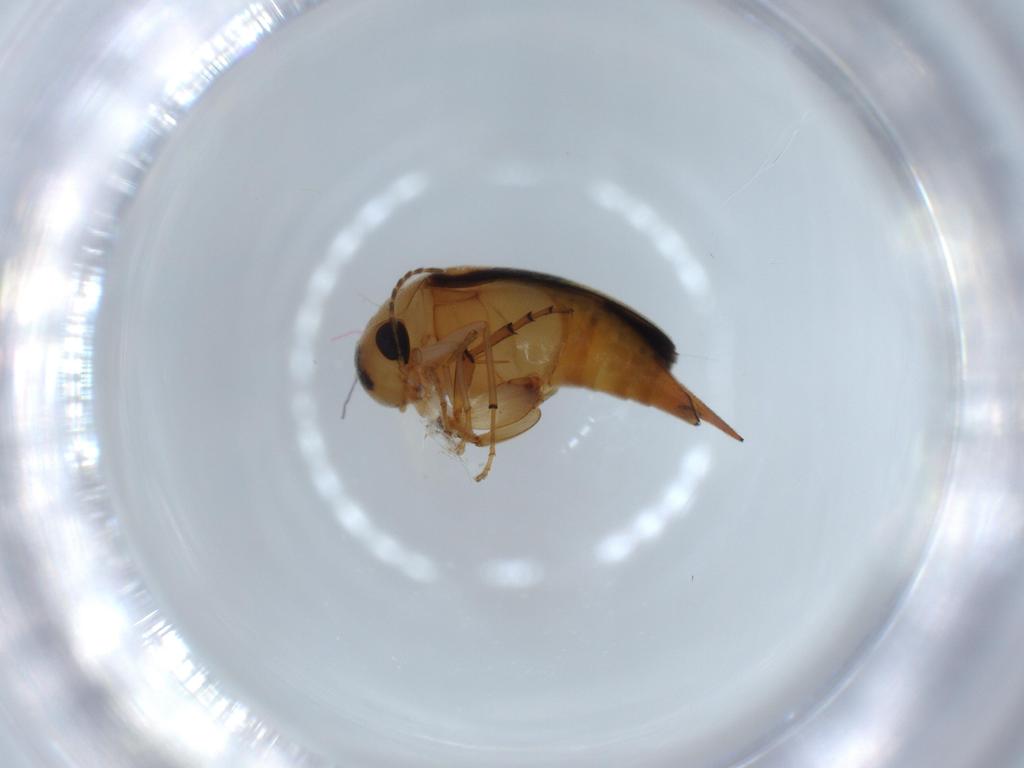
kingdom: Animalia
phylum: Arthropoda
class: Insecta
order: Coleoptera
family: Mordellidae
